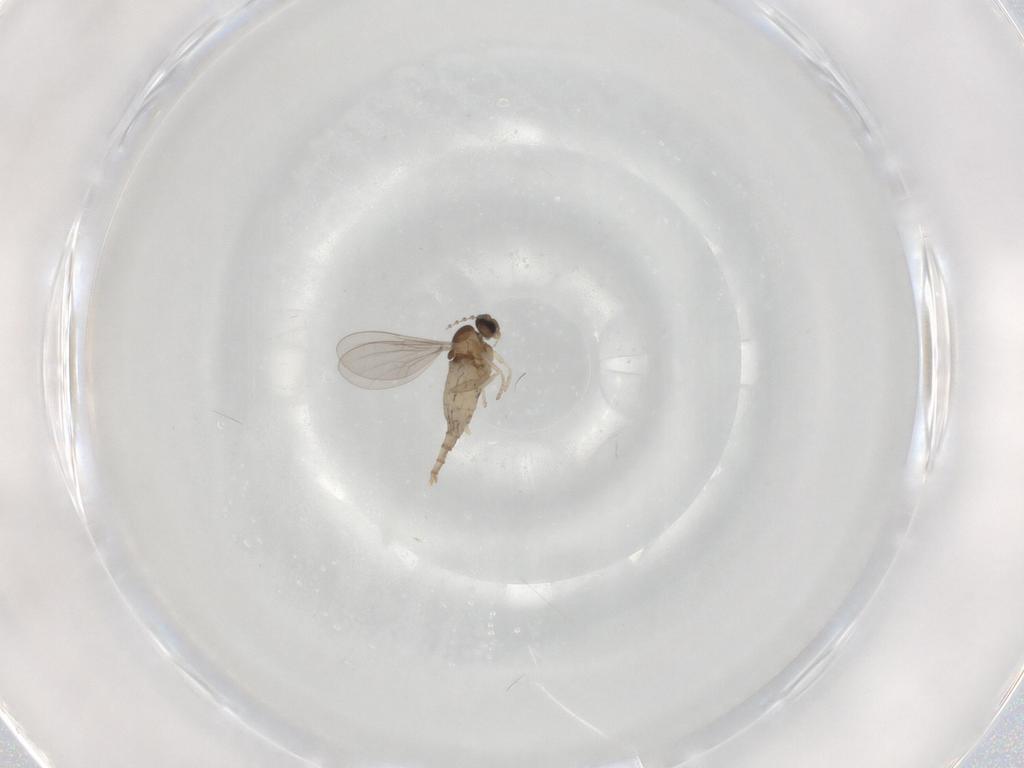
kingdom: Animalia
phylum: Arthropoda
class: Insecta
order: Diptera
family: Cecidomyiidae
